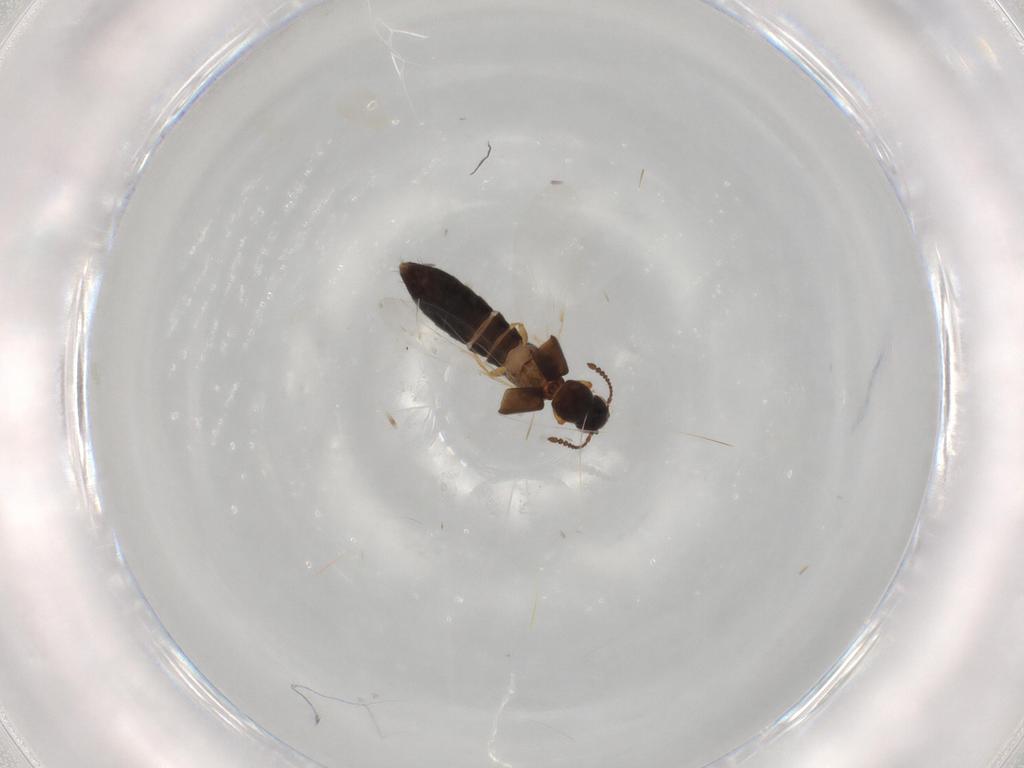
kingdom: Animalia
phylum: Arthropoda
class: Insecta
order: Coleoptera
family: Staphylinidae
